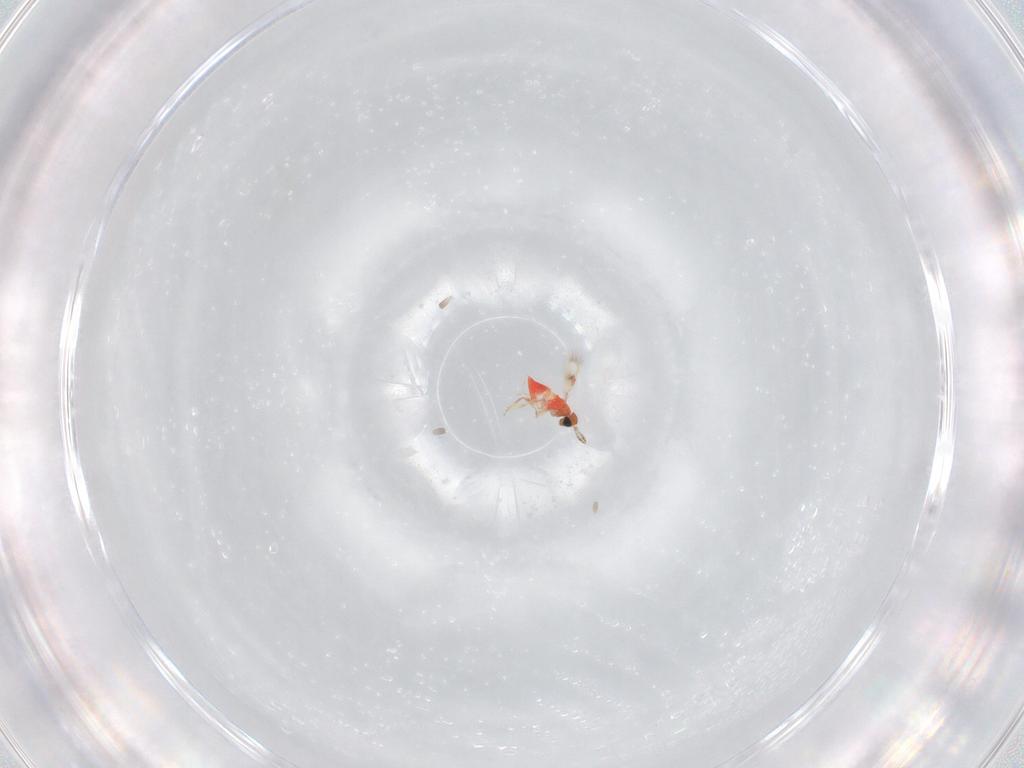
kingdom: Animalia
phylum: Arthropoda
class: Insecta
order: Hymenoptera
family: Trichogrammatidae
